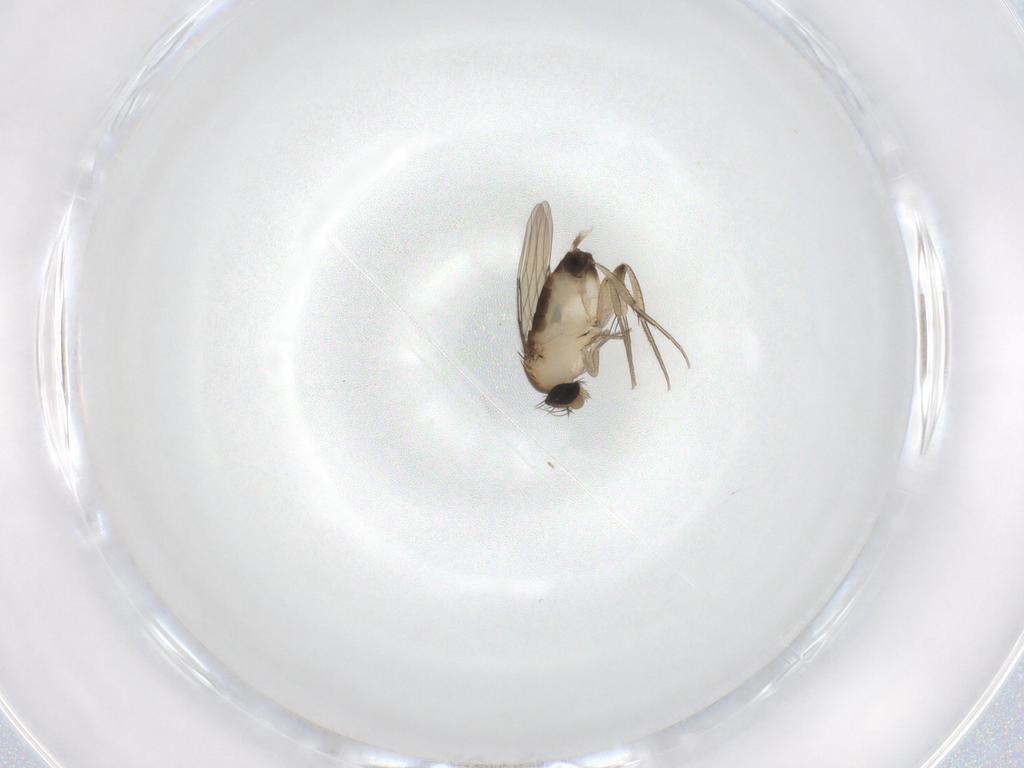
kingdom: Animalia
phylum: Arthropoda
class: Insecta
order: Diptera
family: Phoridae
